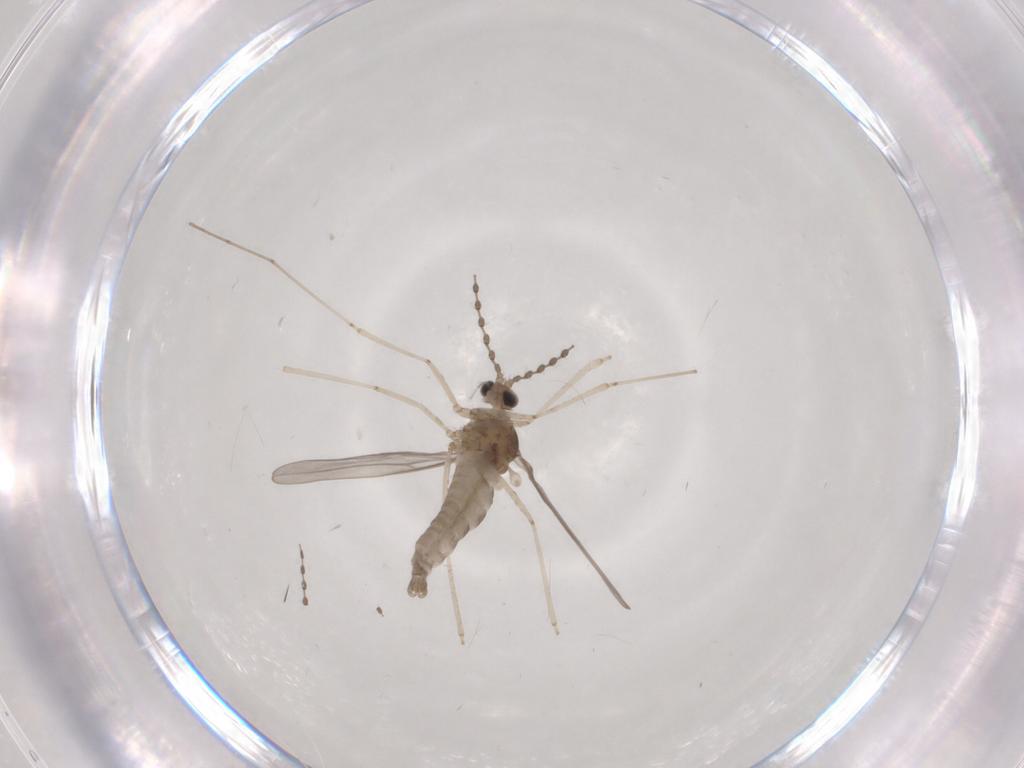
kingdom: Animalia
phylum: Arthropoda
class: Insecta
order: Diptera
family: Cecidomyiidae
